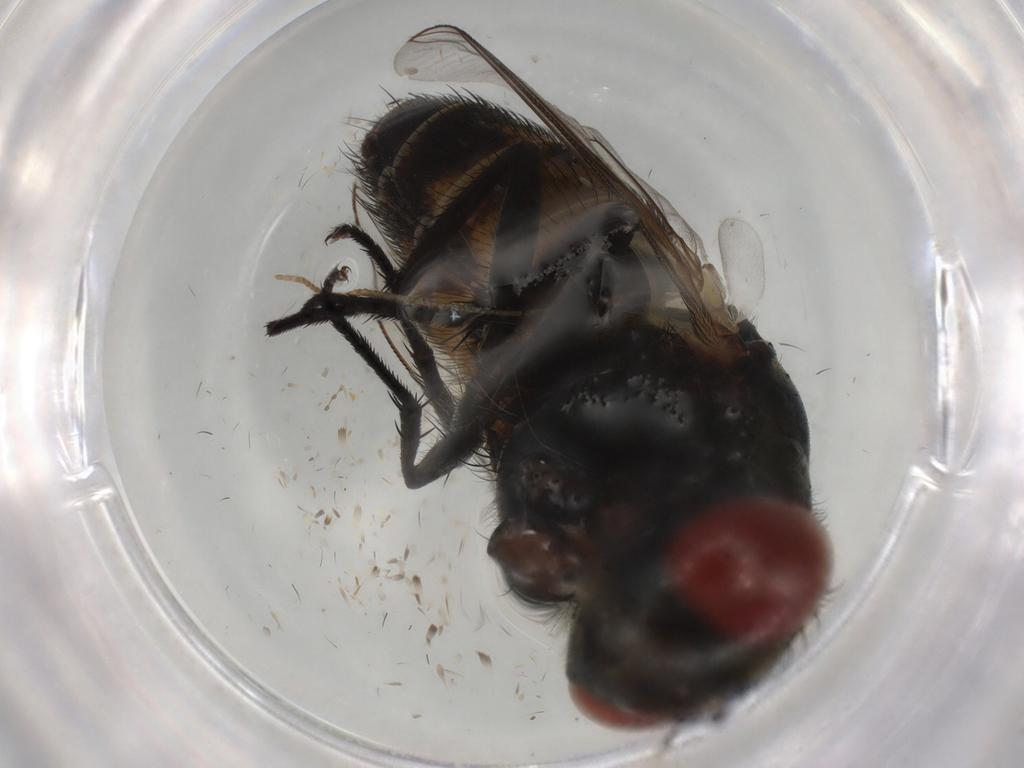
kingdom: Animalia
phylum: Arthropoda
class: Insecta
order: Diptera
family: Sarcophagidae
